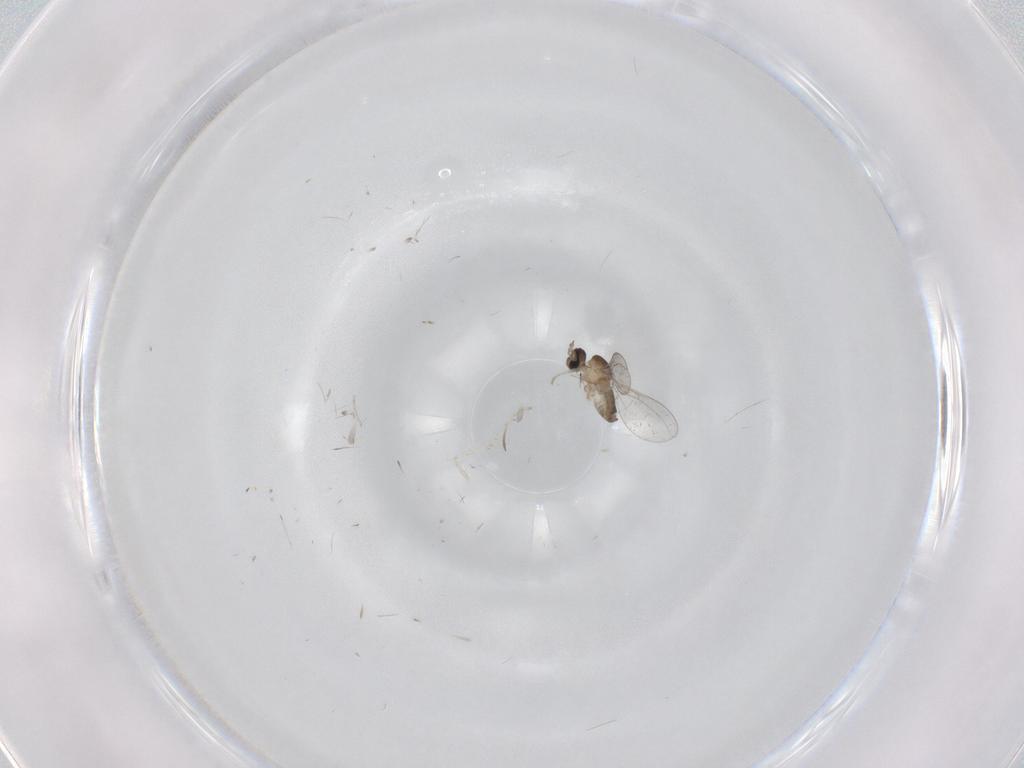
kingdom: Animalia
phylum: Arthropoda
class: Insecta
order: Diptera
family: Cecidomyiidae
